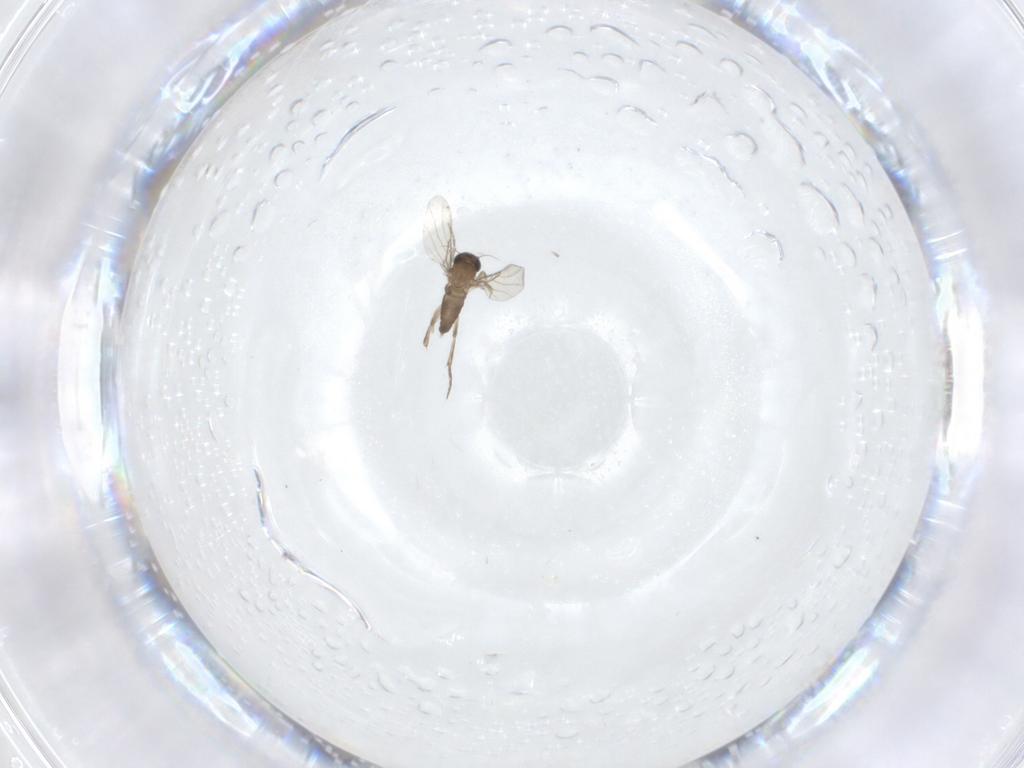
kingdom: Animalia
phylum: Arthropoda
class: Insecta
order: Diptera
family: Phoridae
